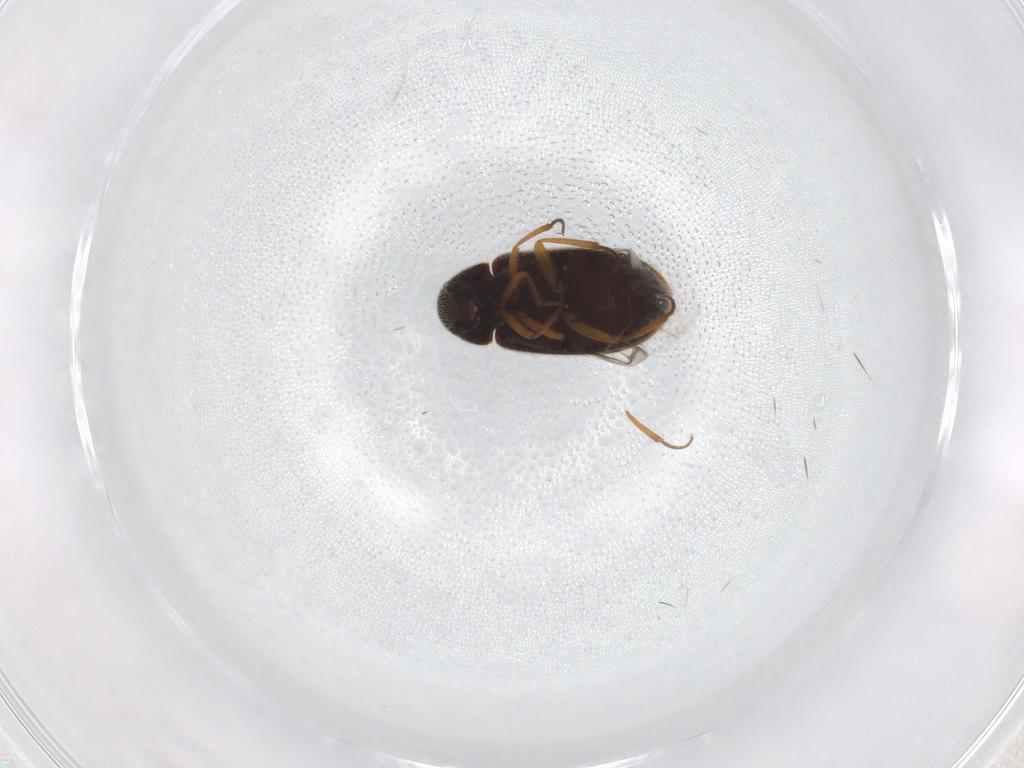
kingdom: Animalia
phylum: Arthropoda
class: Insecta
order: Coleoptera
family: Rhadalidae
